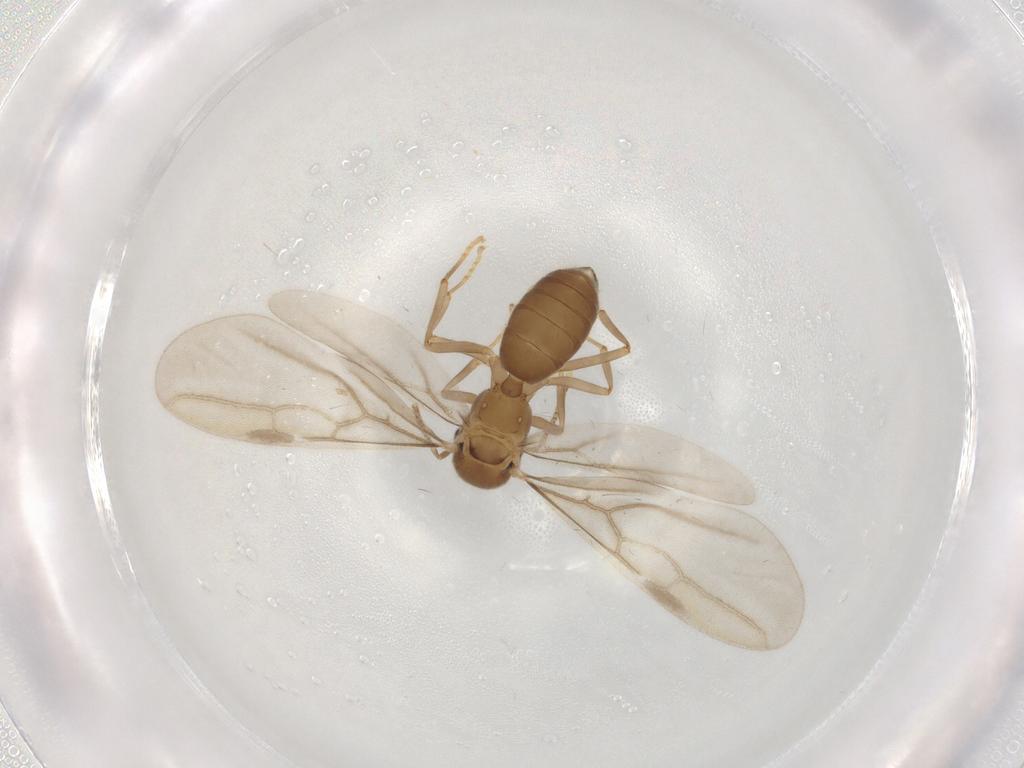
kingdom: Animalia
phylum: Arthropoda
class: Insecta
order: Hymenoptera
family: Formicidae
